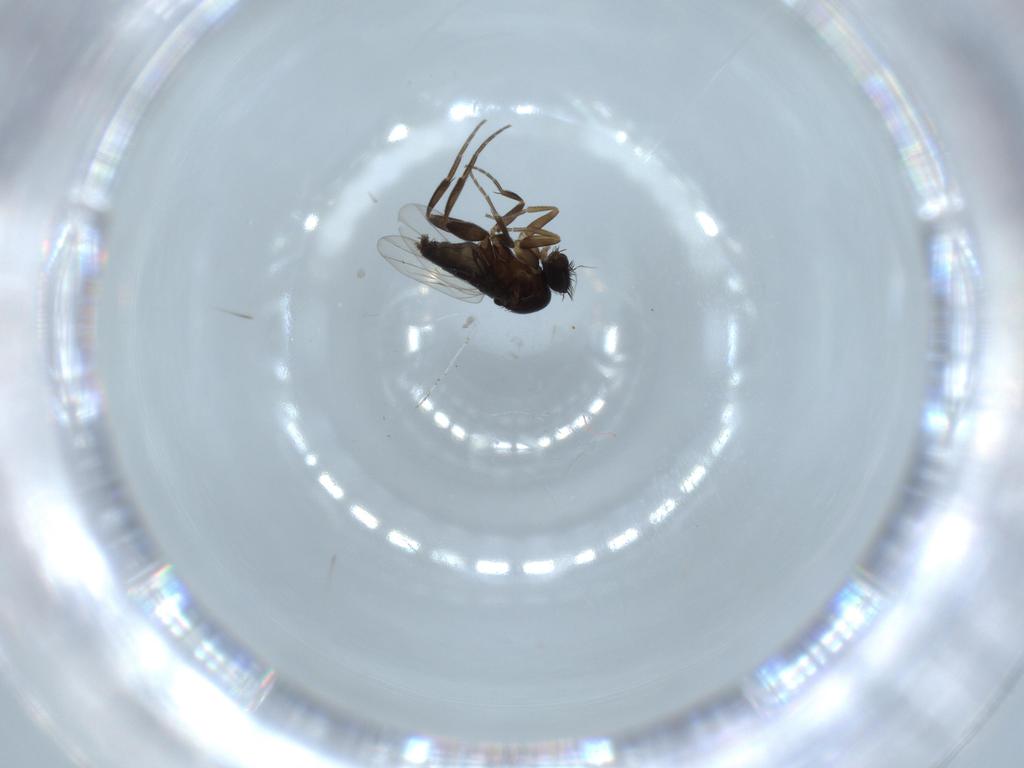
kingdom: Animalia
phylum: Arthropoda
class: Insecta
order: Diptera
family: Phoridae
